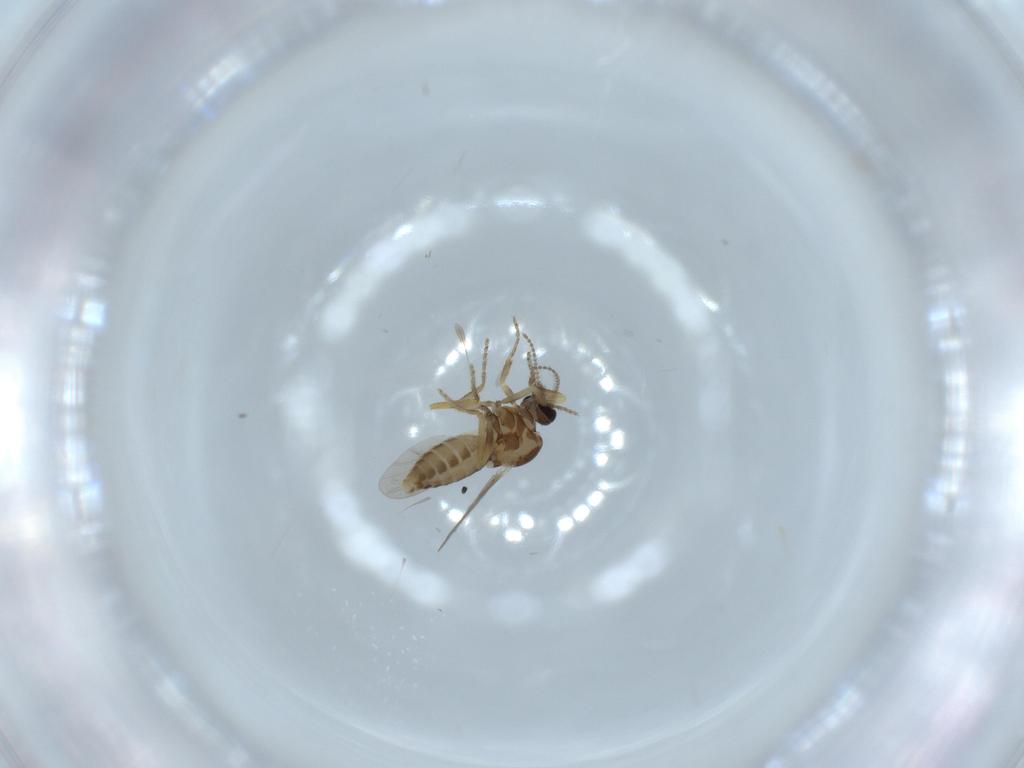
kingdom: Animalia
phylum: Arthropoda
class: Insecta
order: Diptera
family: Ceratopogonidae
